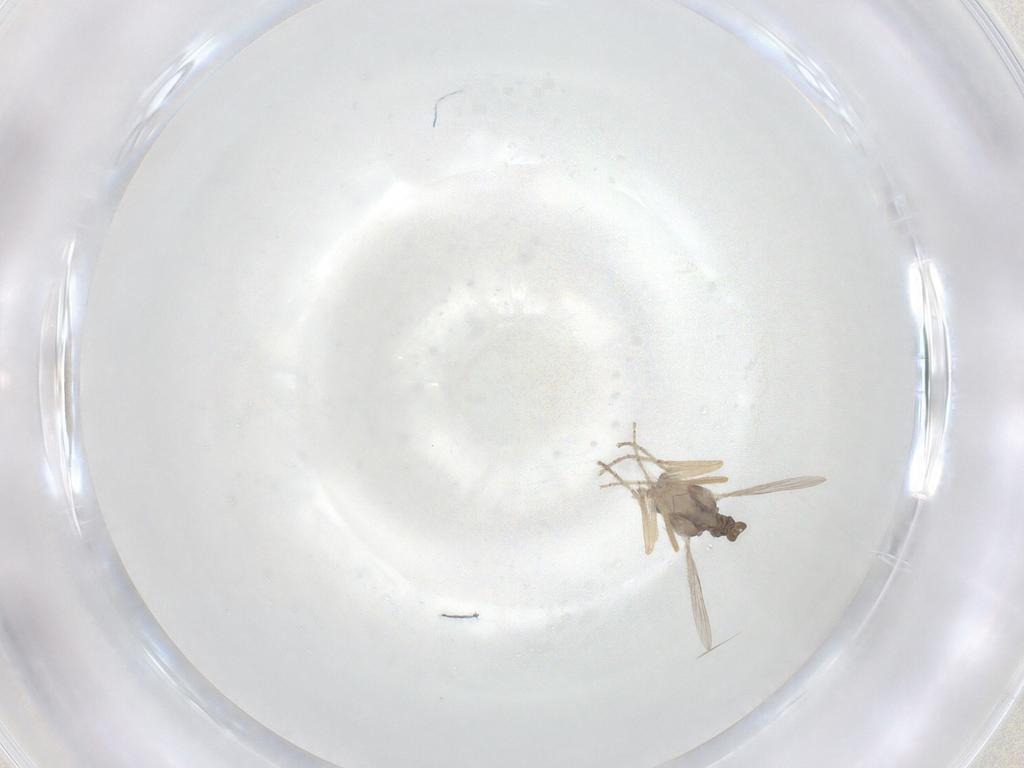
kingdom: Animalia
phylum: Arthropoda
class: Insecta
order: Diptera
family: Ceratopogonidae
